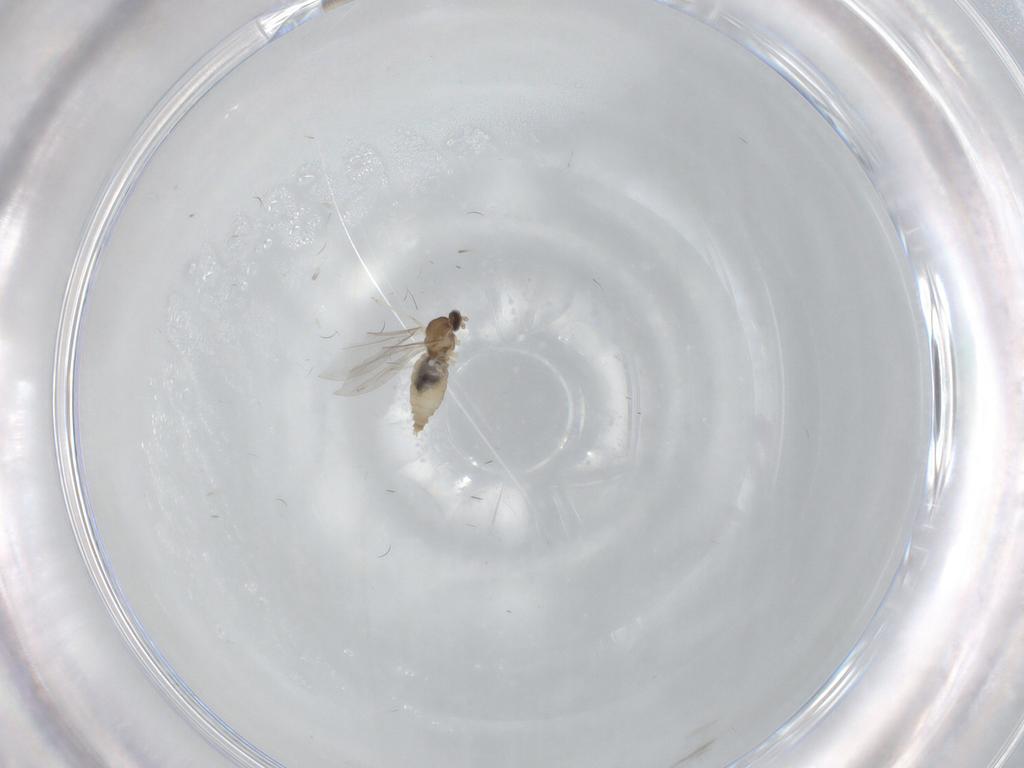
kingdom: Animalia
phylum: Arthropoda
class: Insecta
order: Diptera
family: Cecidomyiidae
